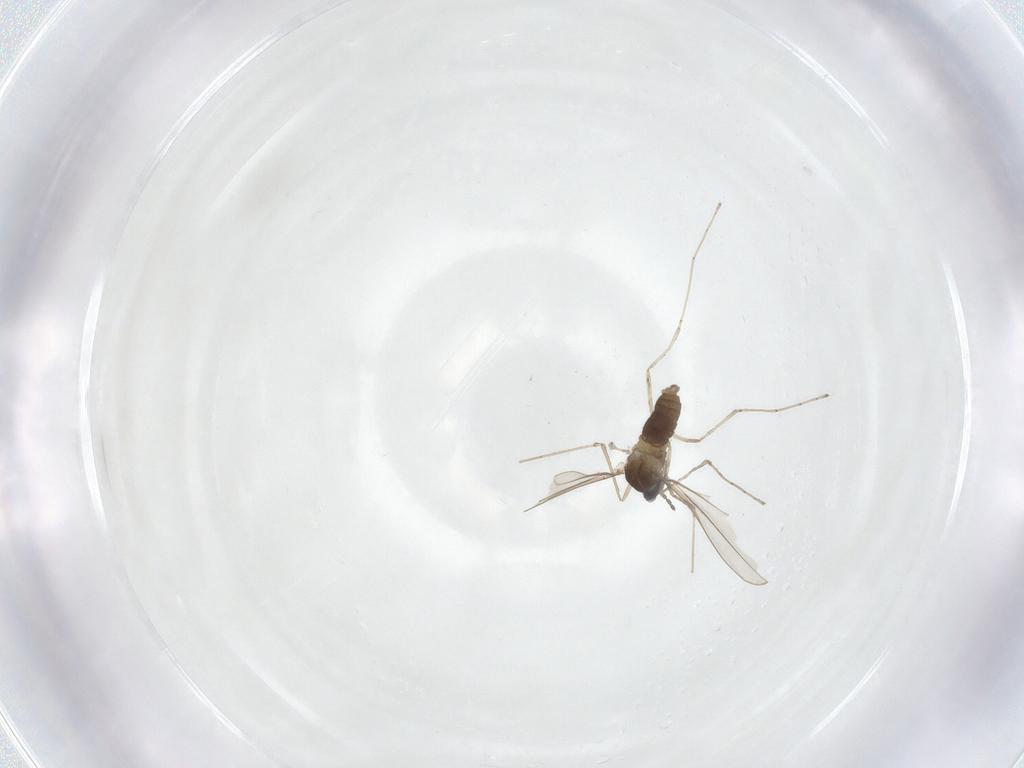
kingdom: Animalia
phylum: Arthropoda
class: Insecta
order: Diptera
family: Cecidomyiidae
